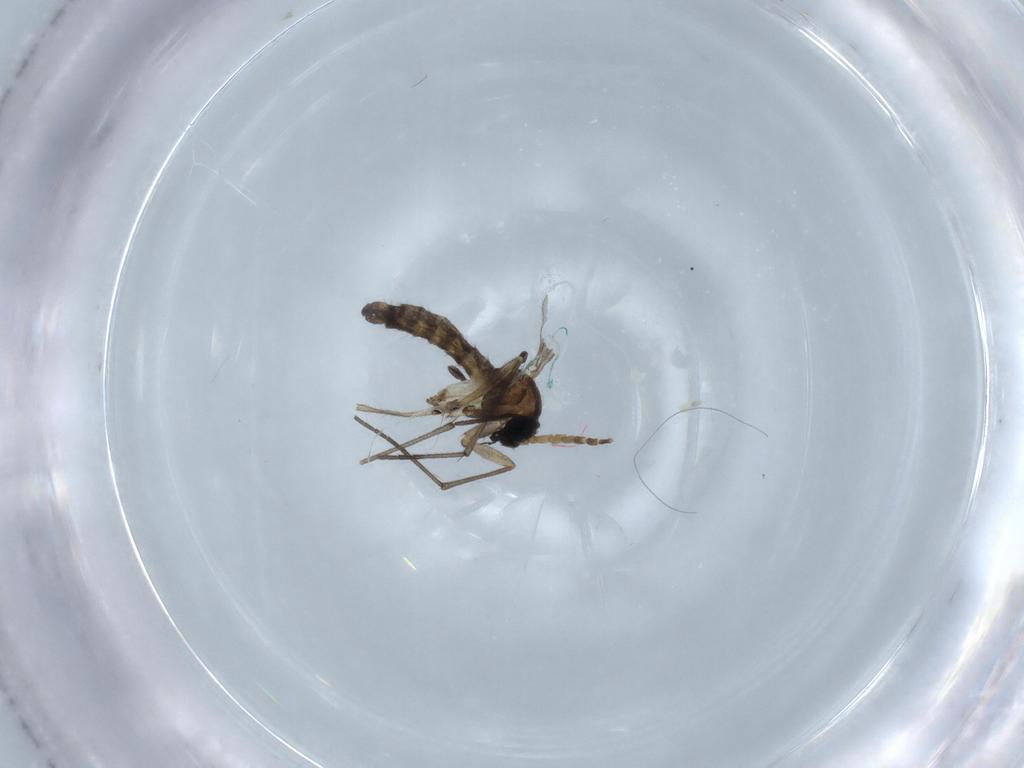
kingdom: Animalia
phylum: Arthropoda
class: Insecta
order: Diptera
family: Sciaridae
